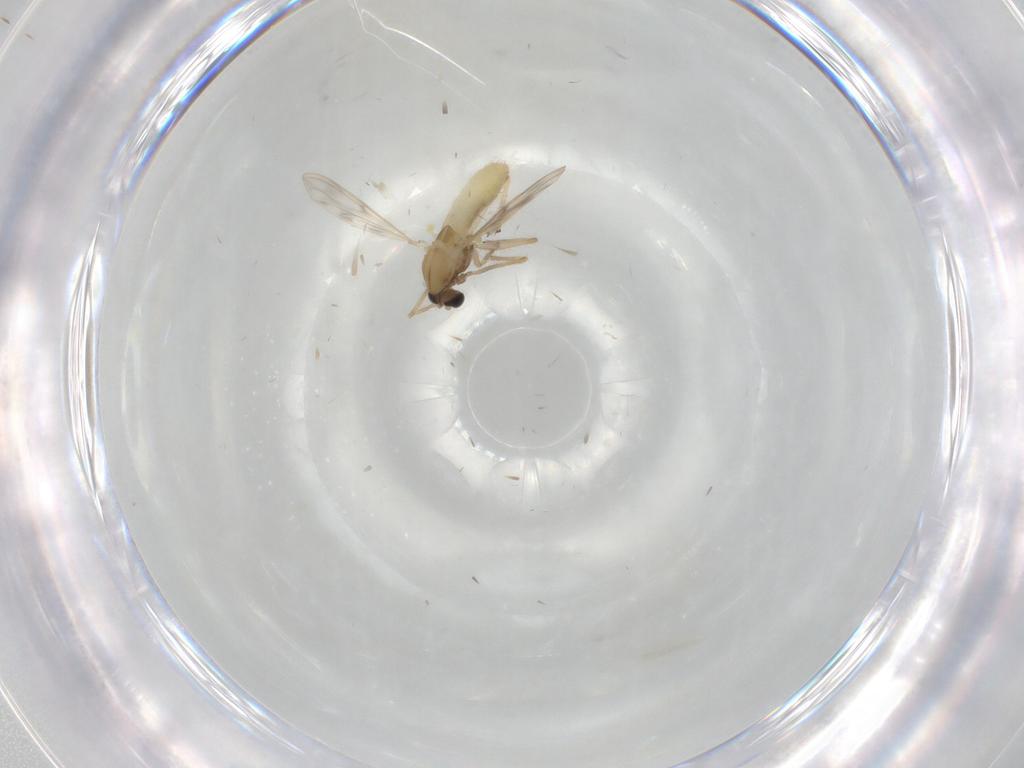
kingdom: Animalia
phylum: Arthropoda
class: Insecta
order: Diptera
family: Chironomidae
